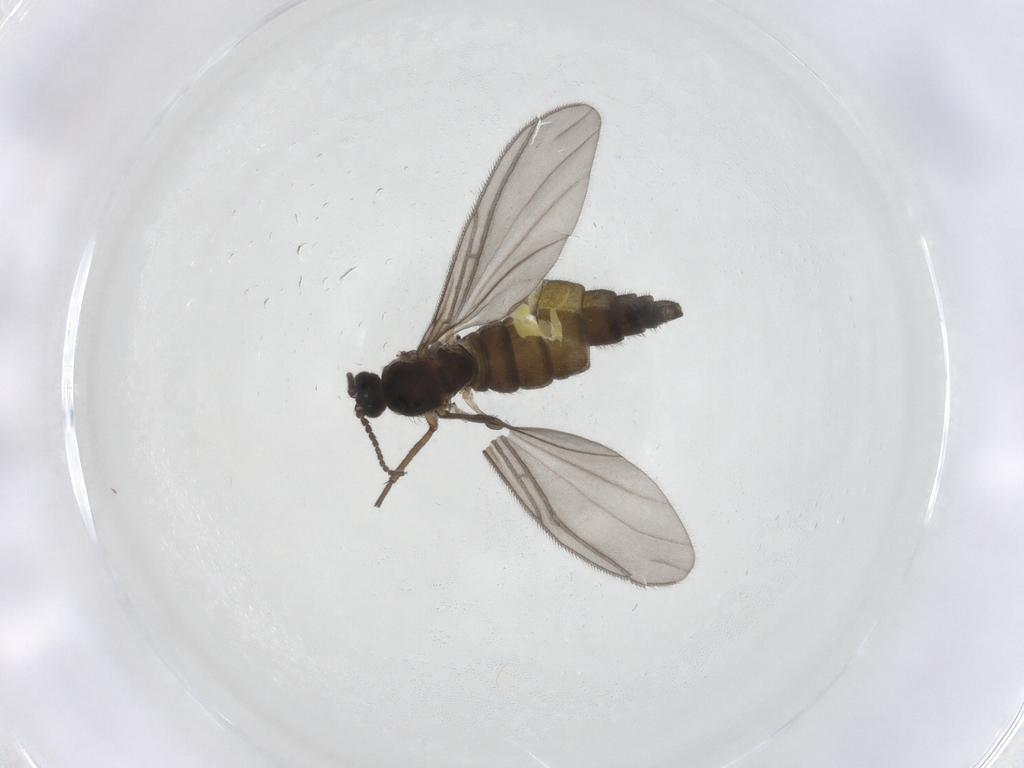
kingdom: Animalia
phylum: Arthropoda
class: Insecta
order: Diptera
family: Sciaridae
